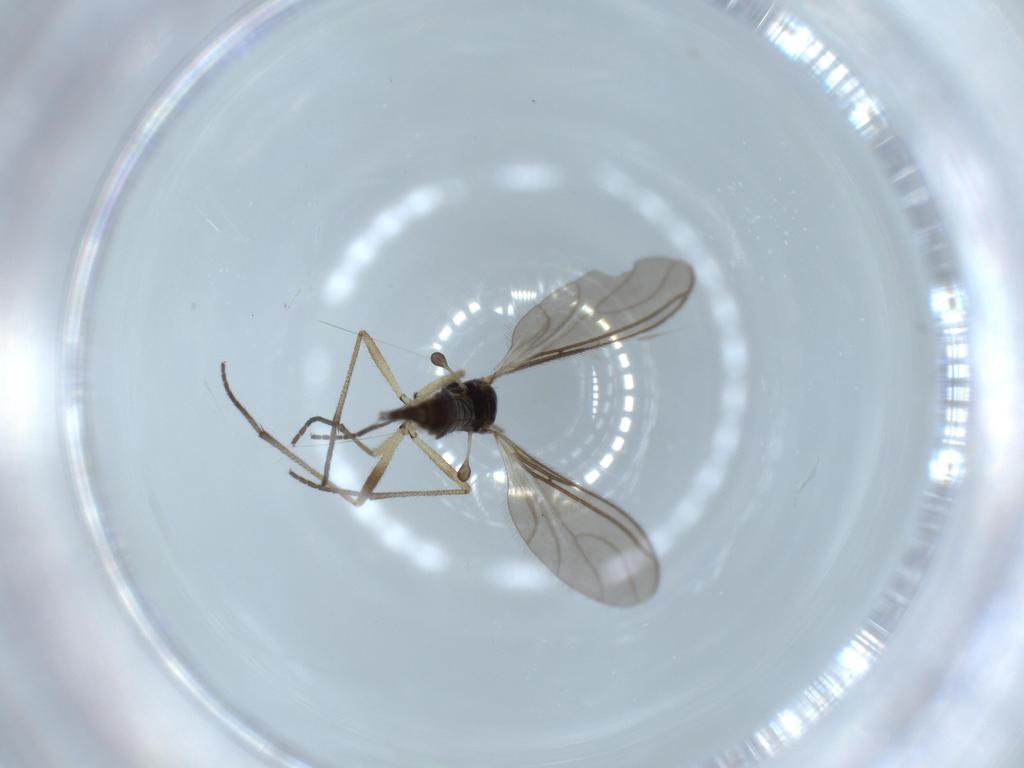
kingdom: Animalia
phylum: Arthropoda
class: Insecta
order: Diptera
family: Sciaridae
